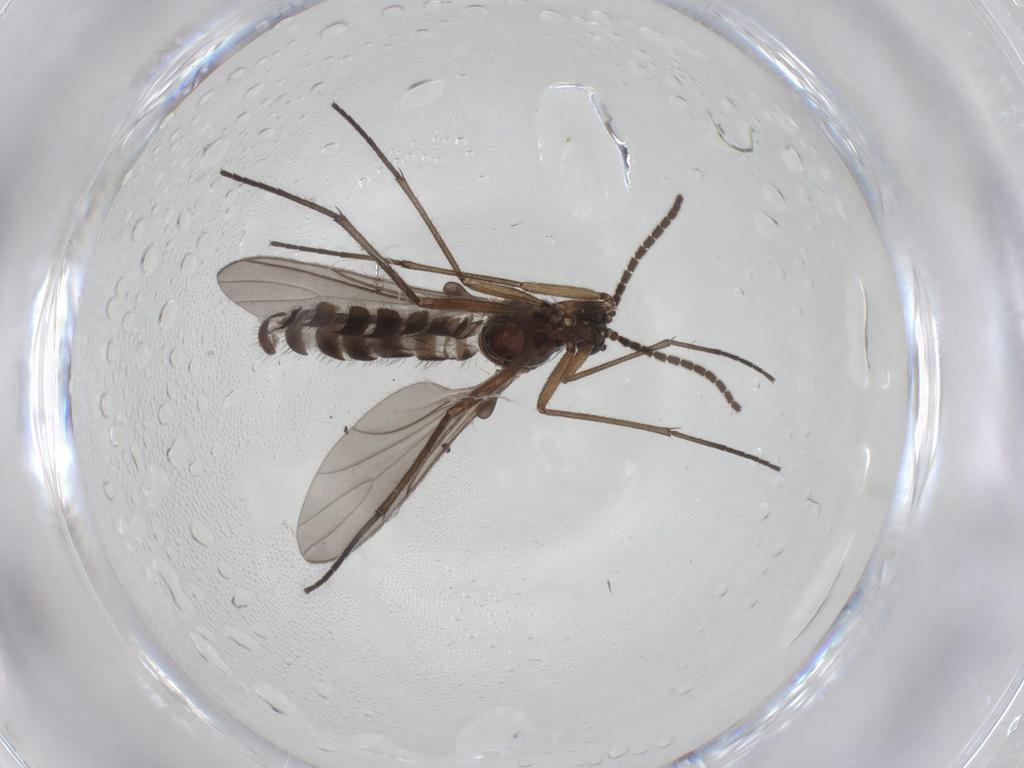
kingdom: Animalia
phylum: Arthropoda
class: Insecta
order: Diptera
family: Sciaridae
